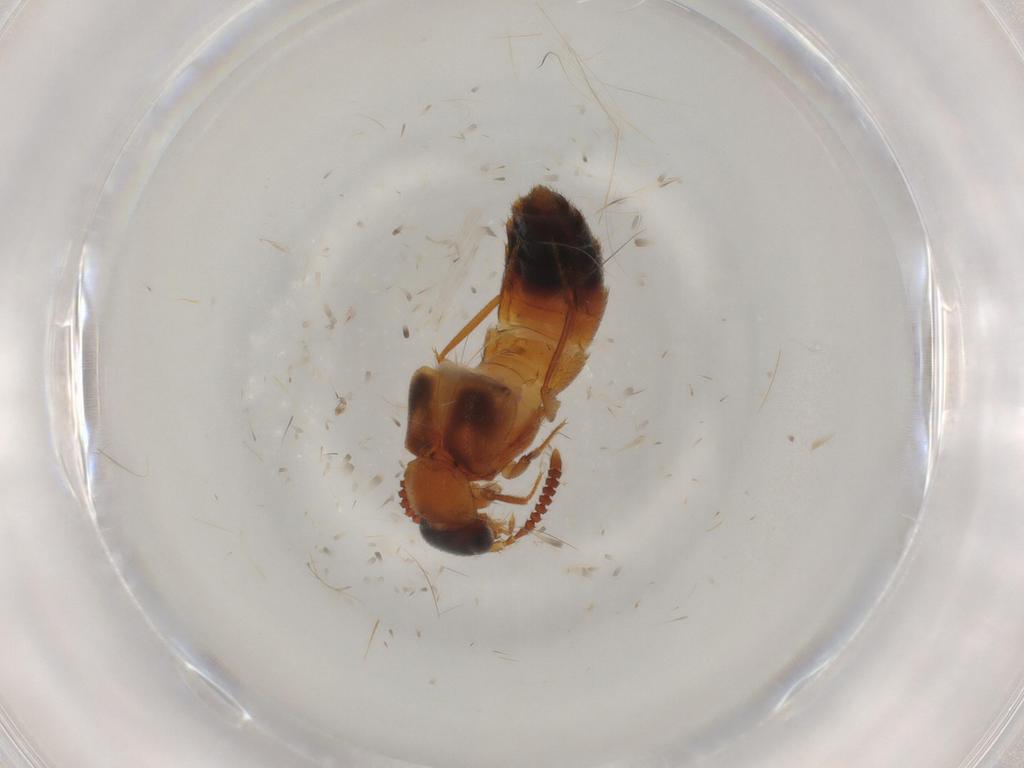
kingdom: Animalia
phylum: Arthropoda
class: Insecta
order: Coleoptera
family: Staphylinidae
